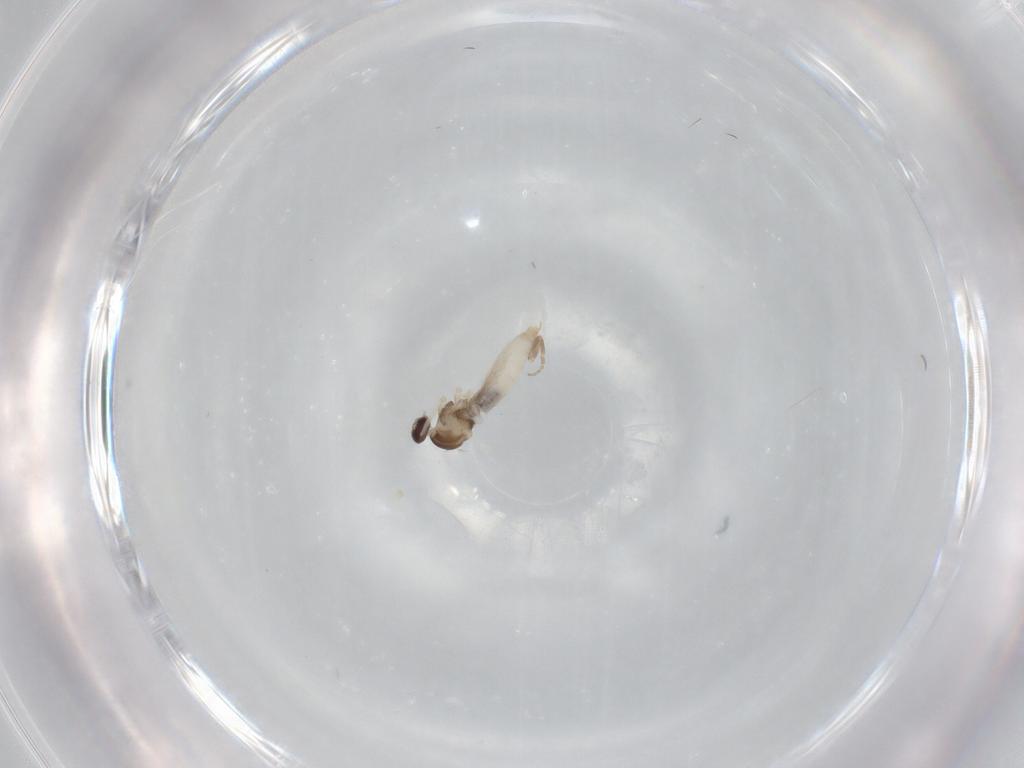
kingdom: Animalia
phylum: Arthropoda
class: Insecta
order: Diptera
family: Cecidomyiidae
